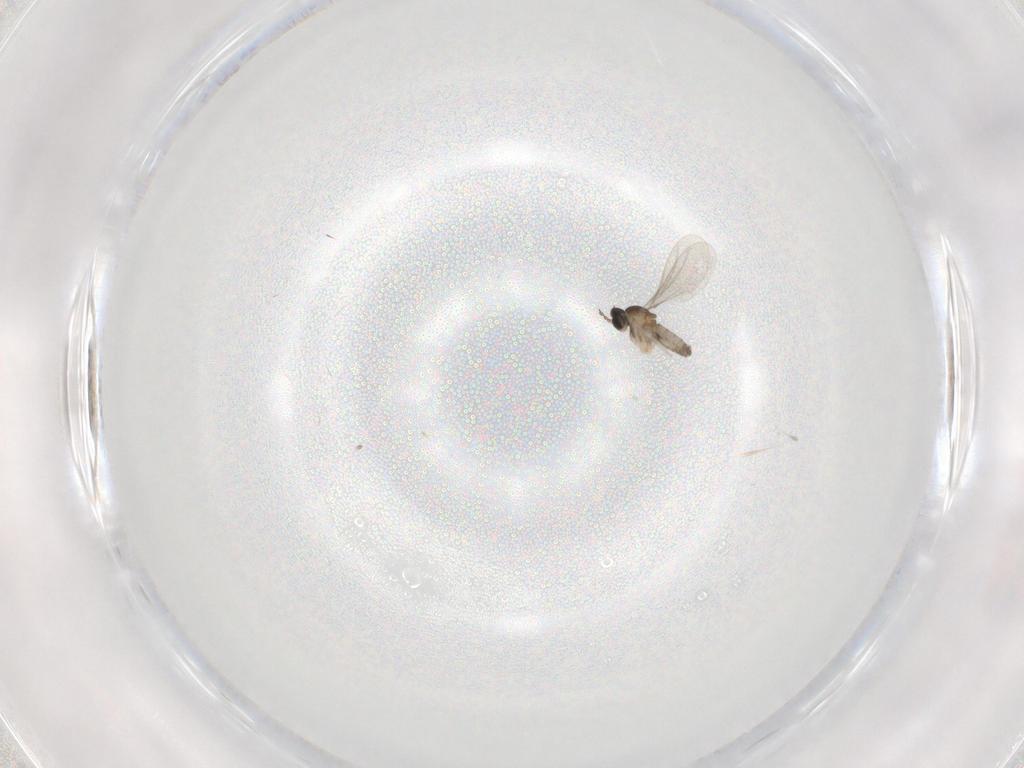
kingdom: Animalia
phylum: Arthropoda
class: Insecta
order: Diptera
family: Cecidomyiidae
